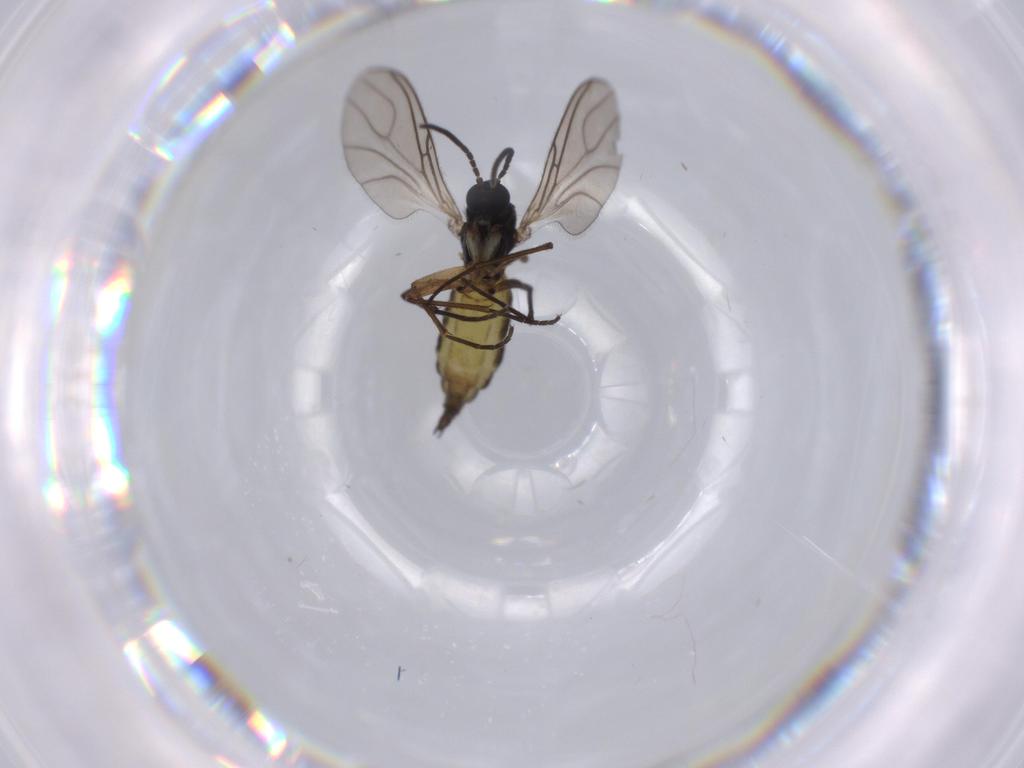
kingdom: Animalia
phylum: Arthropoda
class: Insecta
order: Diptera
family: Sciaridae
